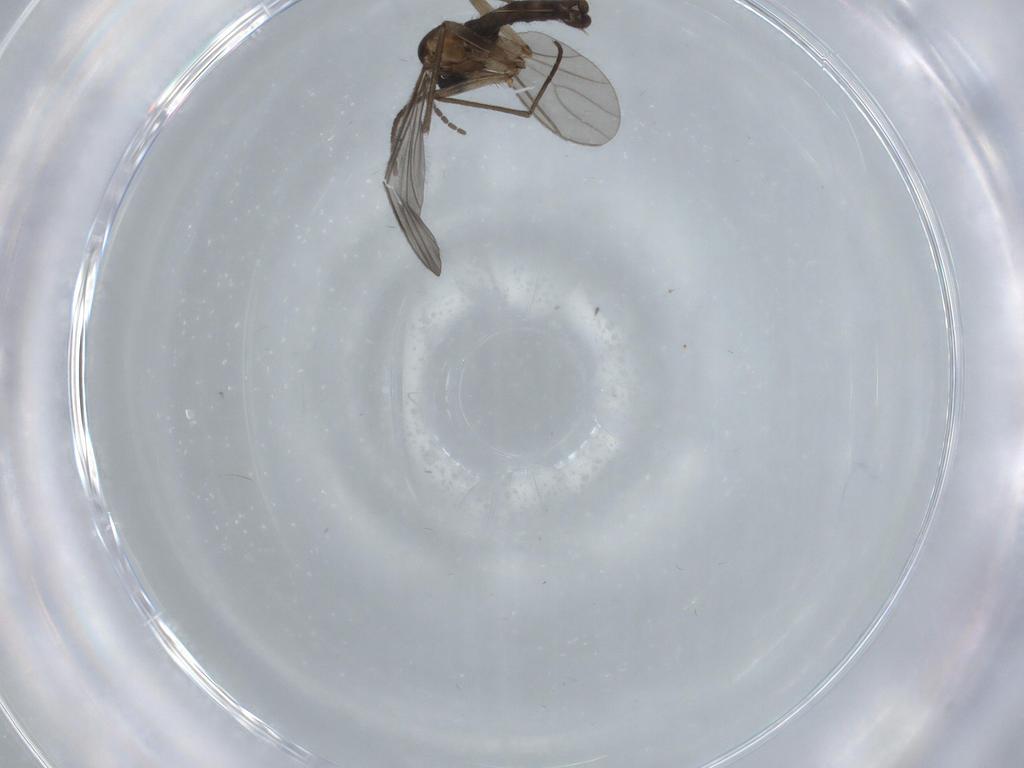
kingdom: Animalia
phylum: Arthropoda
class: Insecta
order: Diptera
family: Sciaridae
